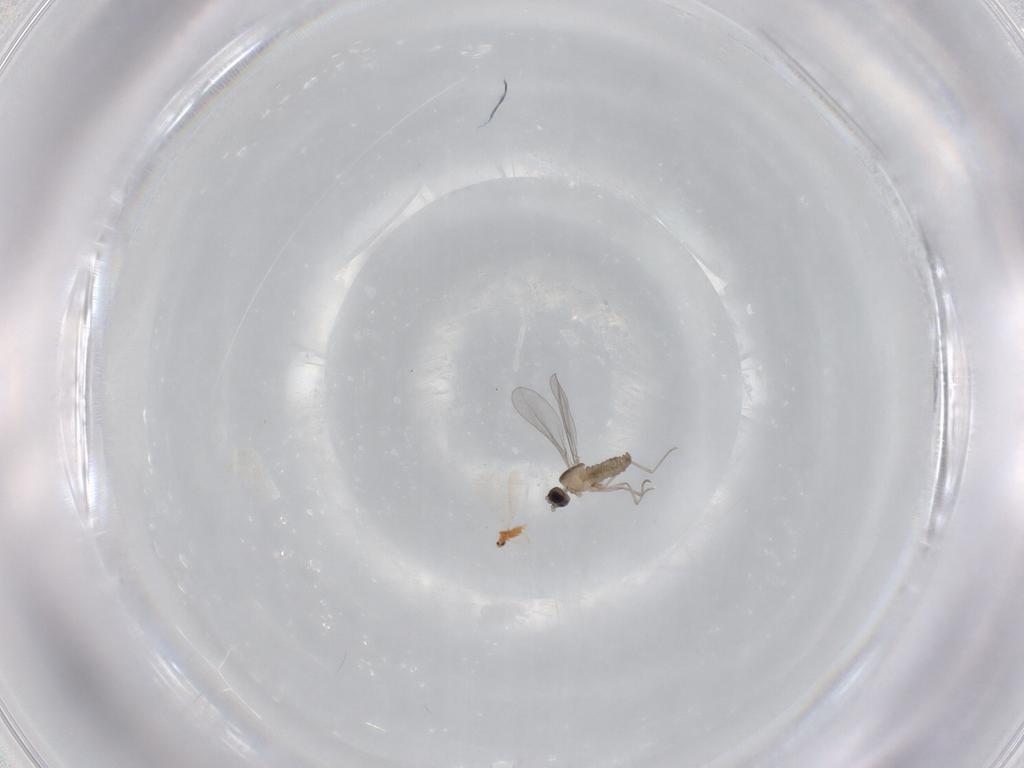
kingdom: Animalia
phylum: Arthropoda
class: Insecta
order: Diptera
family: Cecidomyiidae
